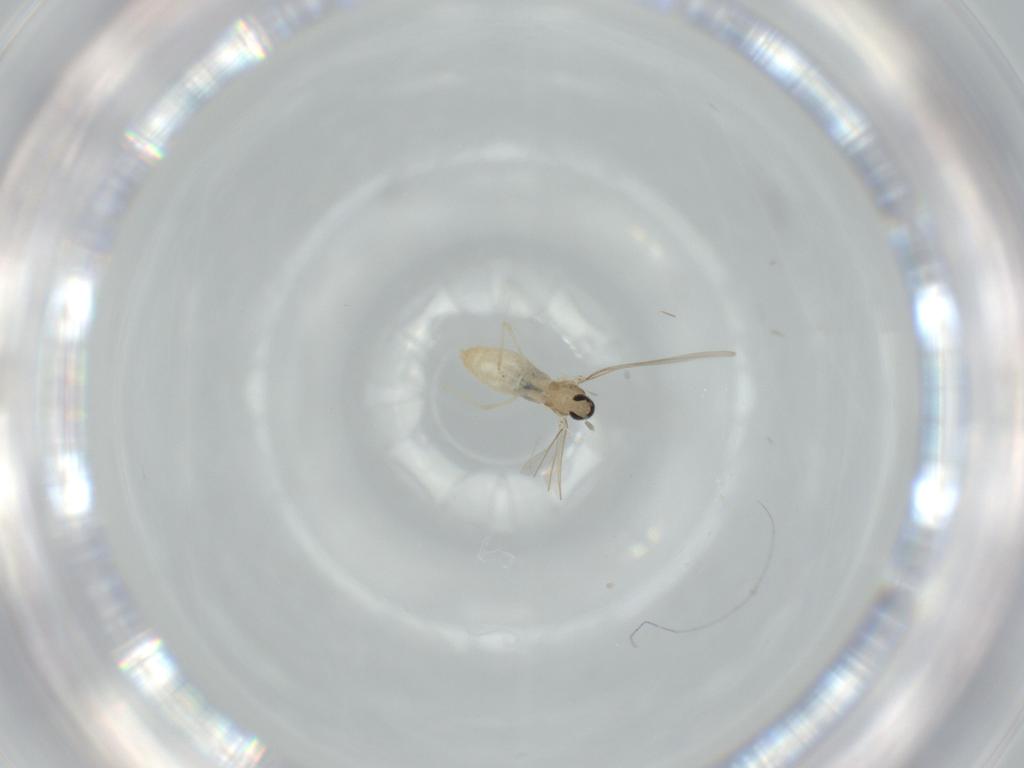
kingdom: Animalia
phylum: Arthropoda
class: Insecta
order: Diptera
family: Cecidomyiidae
